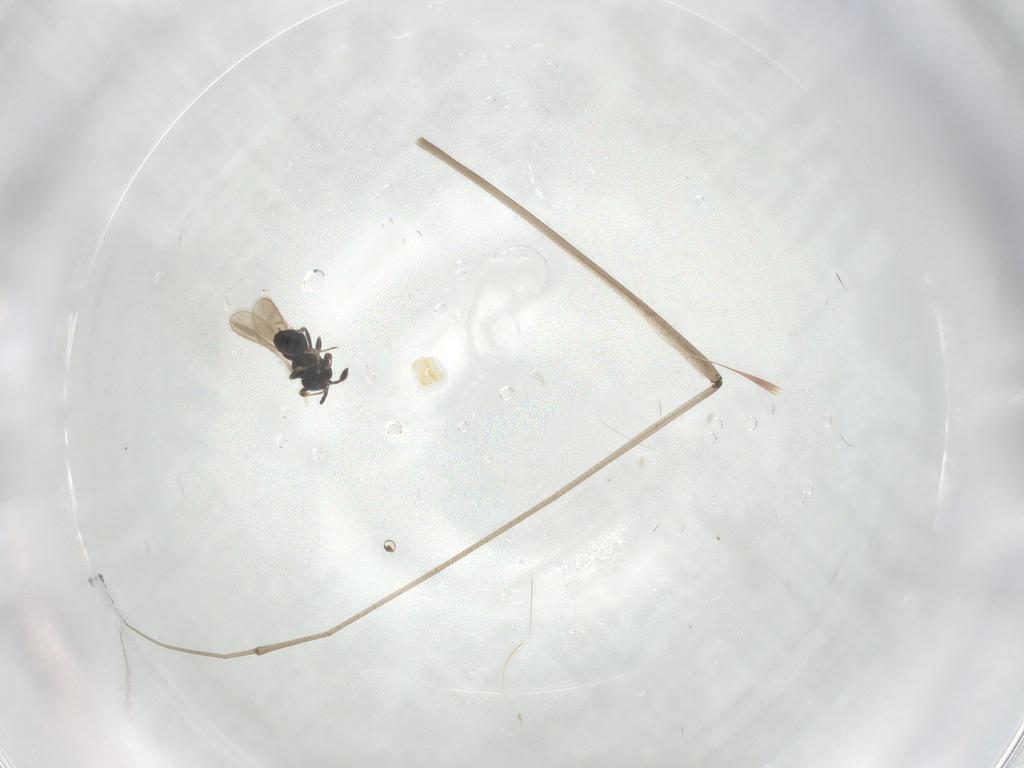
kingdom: Animalia
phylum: Arthropoda
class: Insecta
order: Hymenoptera
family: Scelionidae
